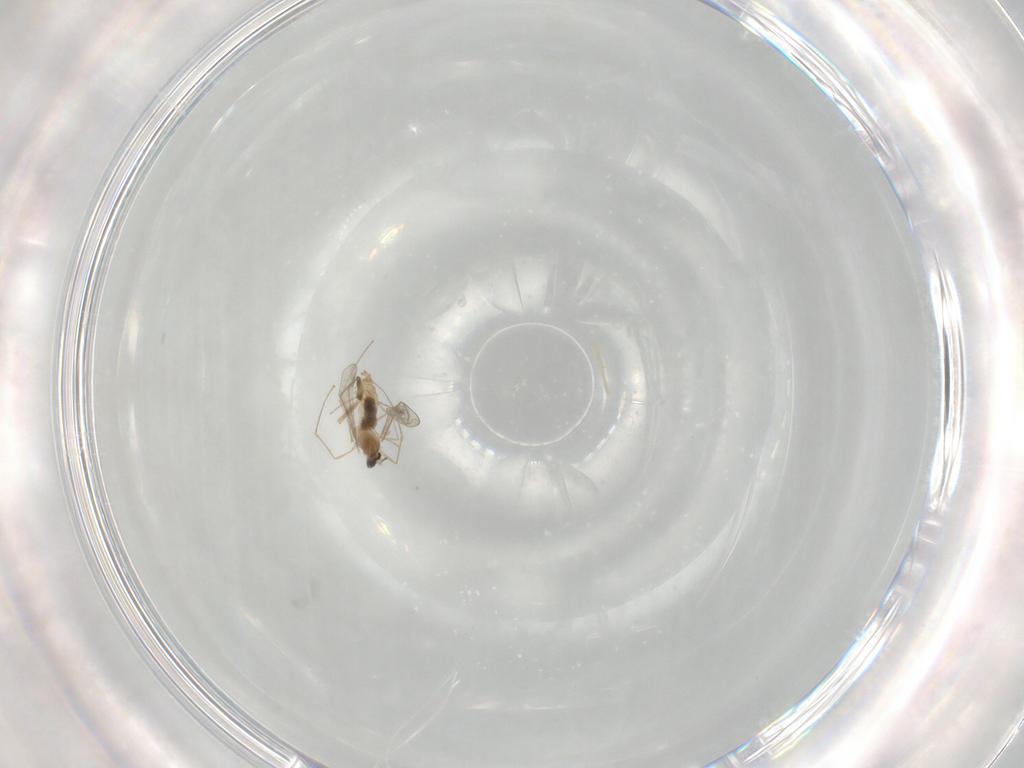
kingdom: Animalia
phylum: Arthropoda
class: Insecta
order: Diptera
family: Cecidomyiidae
